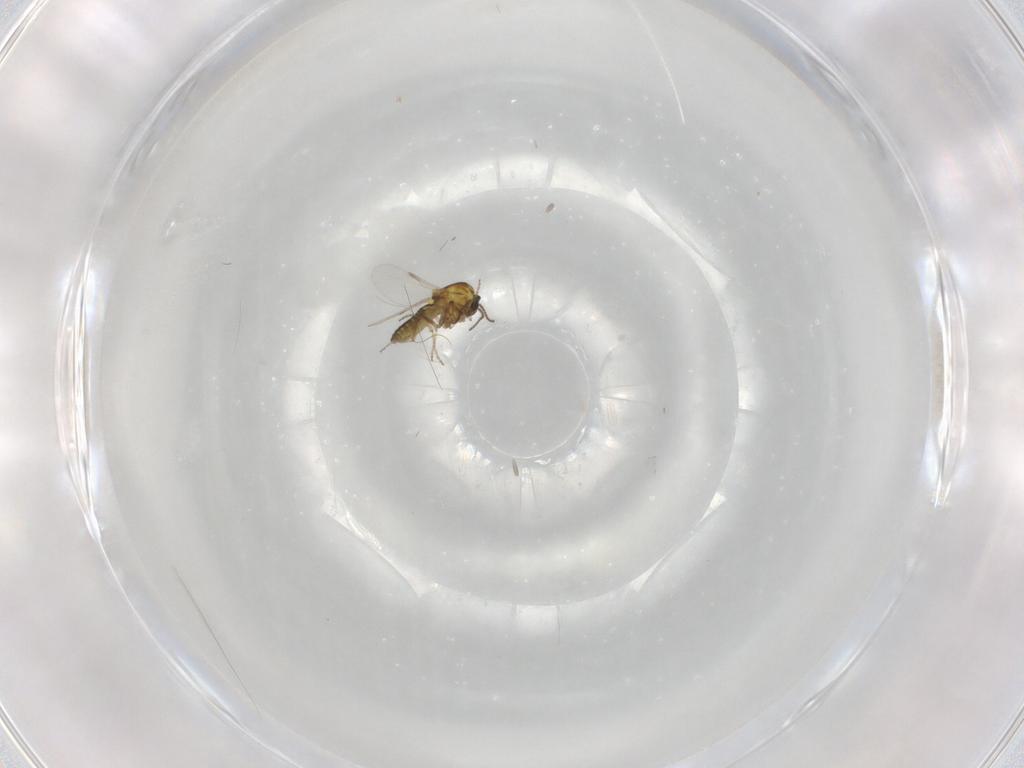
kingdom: Animalia
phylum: Arthropoda
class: Insecta
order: Diptera
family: Ceratopogonidae
